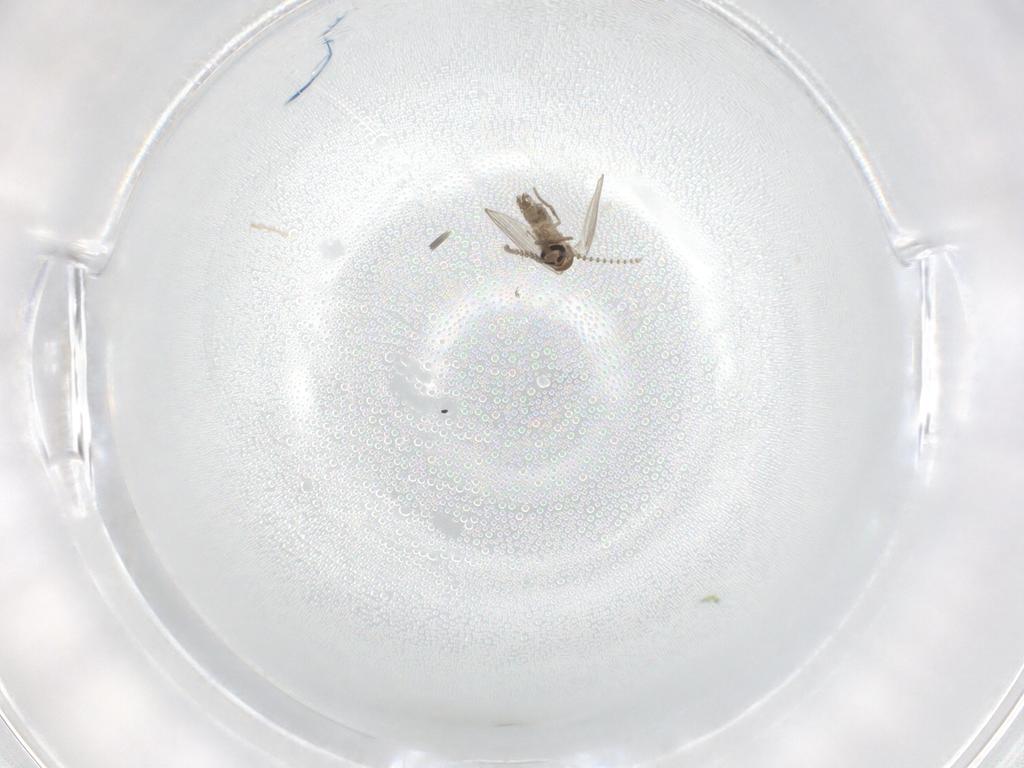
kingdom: Animalia
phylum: Arthropoda
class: Insecta
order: Diptera
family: Psychodidae
